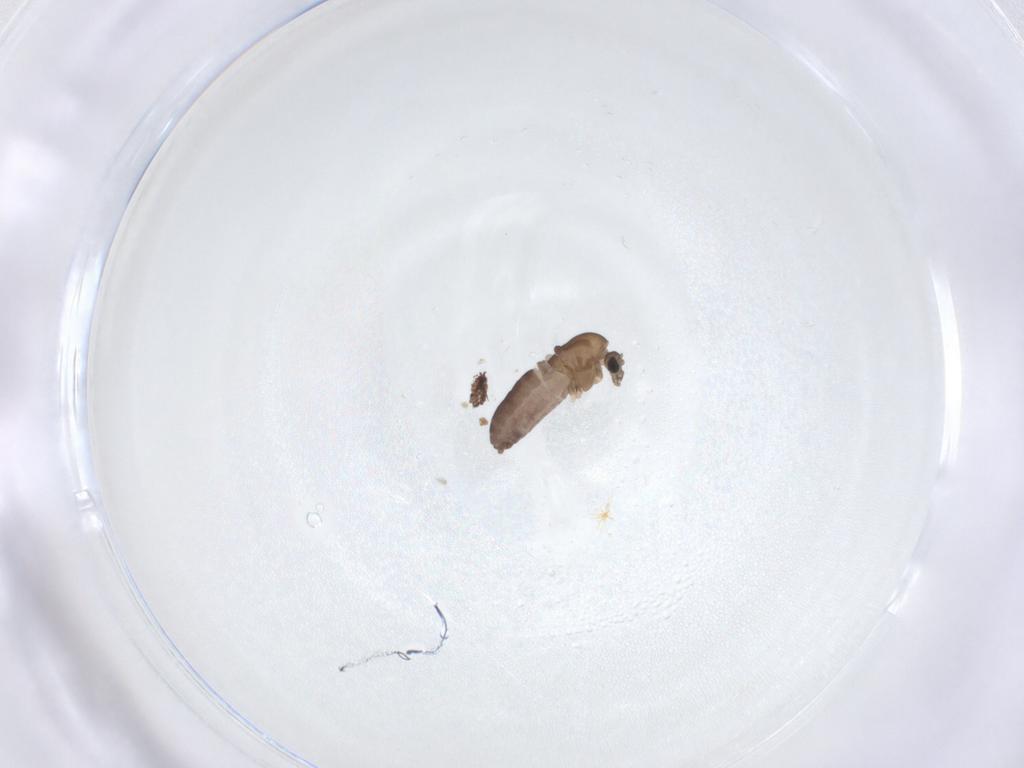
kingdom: Animalia
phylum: Arthropoda
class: Insecta
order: Diptera
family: Chironomidae
